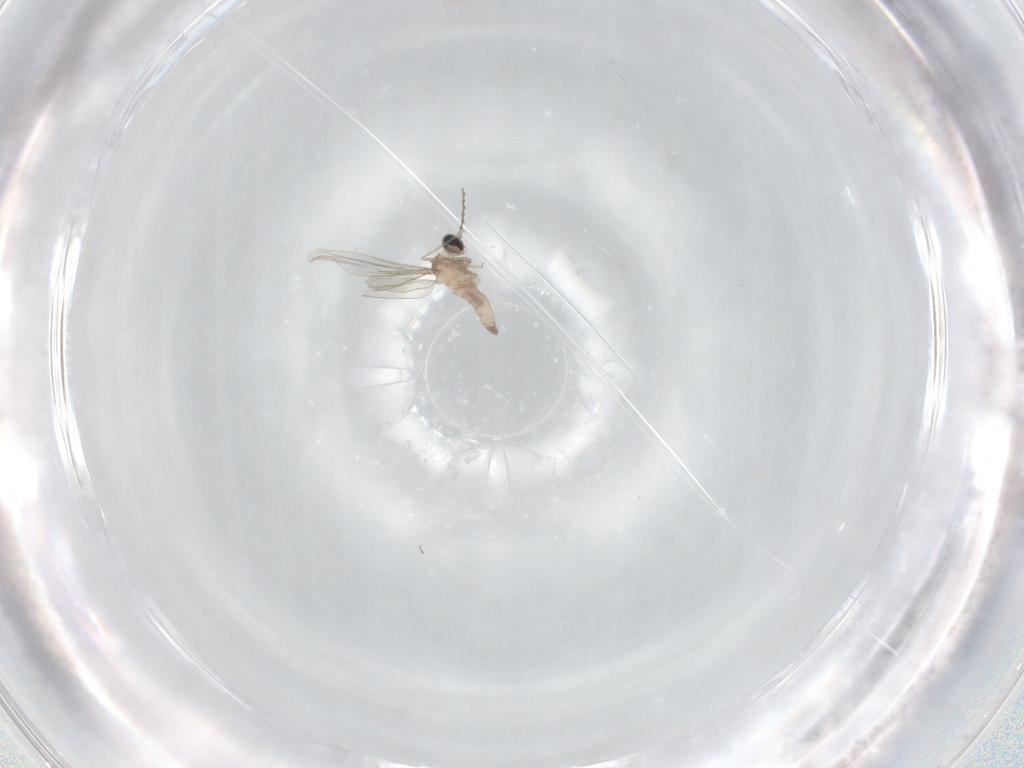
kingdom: Animalia
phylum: Arthropoda
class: Insecta
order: Diptera
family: Cecidomyiidae
